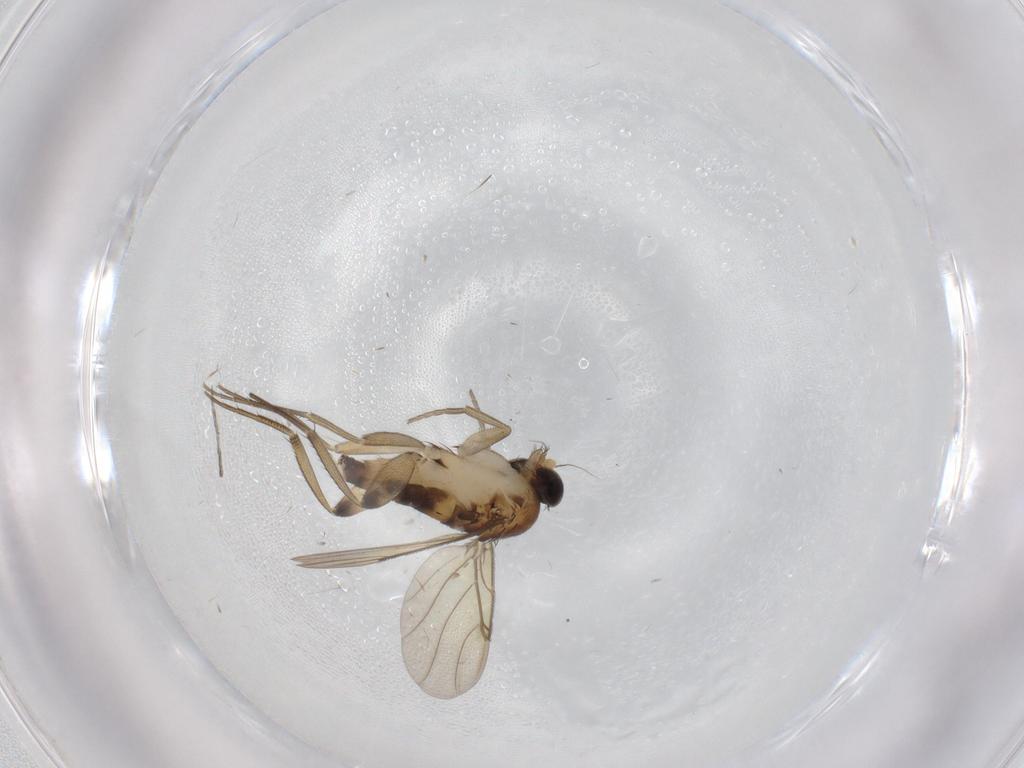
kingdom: Animalia
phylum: Arthropoda
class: Insecta
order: Diptera
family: Phoridae
